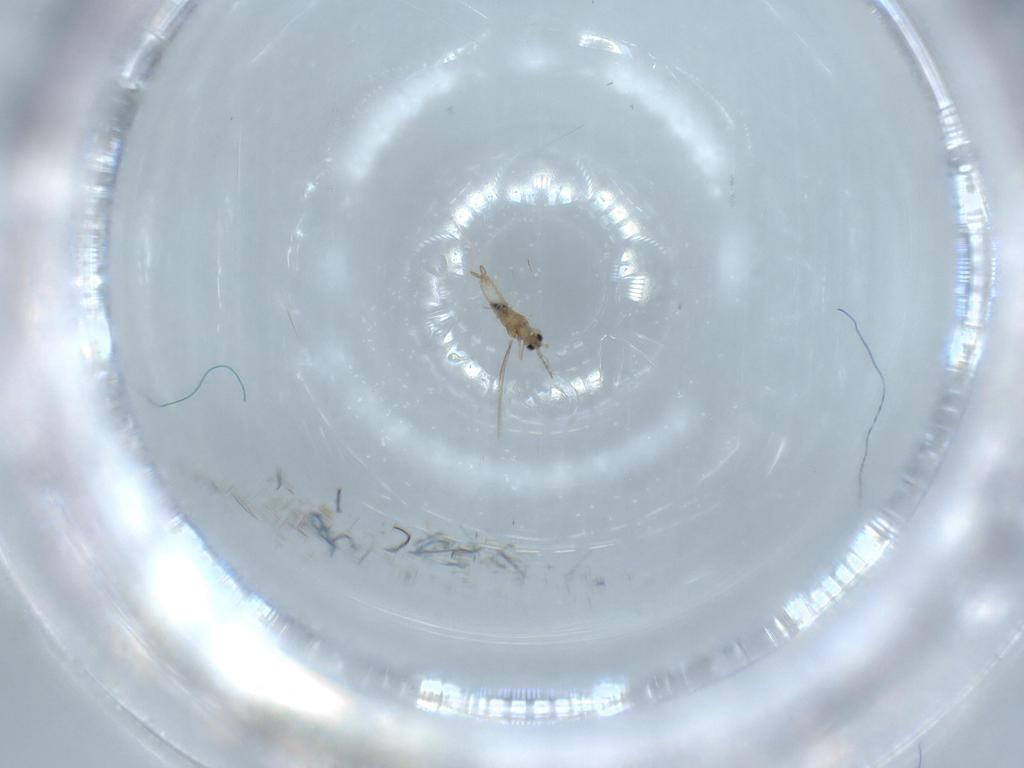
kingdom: Animalia
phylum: Arthropoda
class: Insecta
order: Diptera
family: Cecidomyiidae
